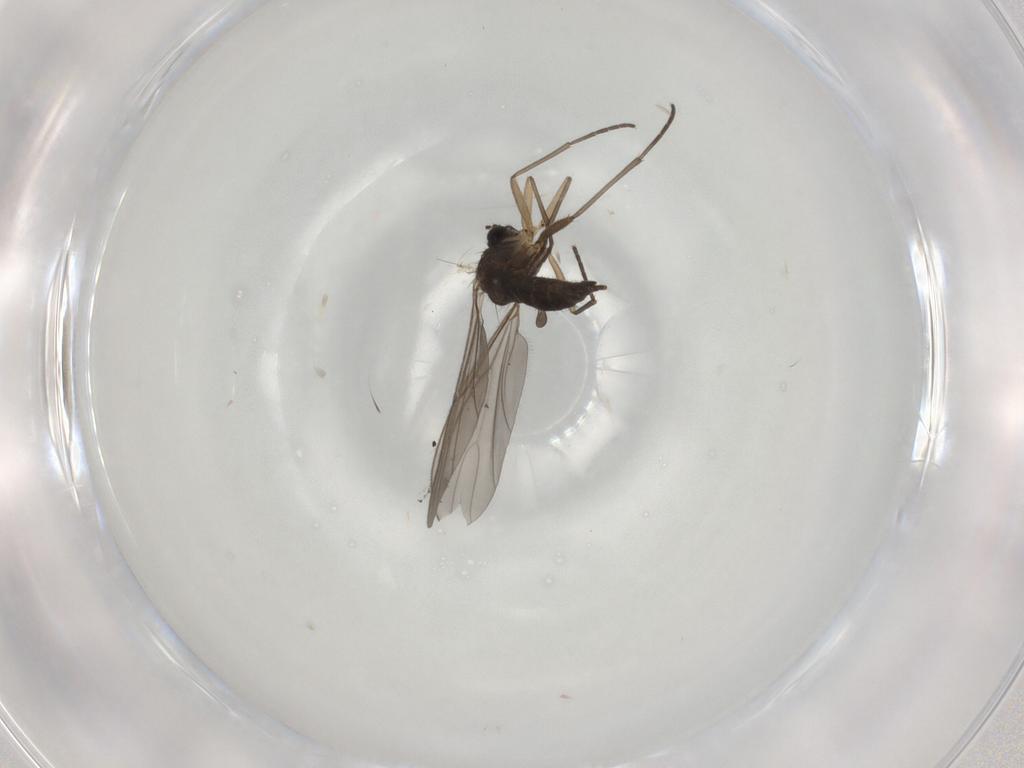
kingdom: Animalia
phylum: Arthropoda
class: Insecta
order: Diptera
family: Sciaridae
